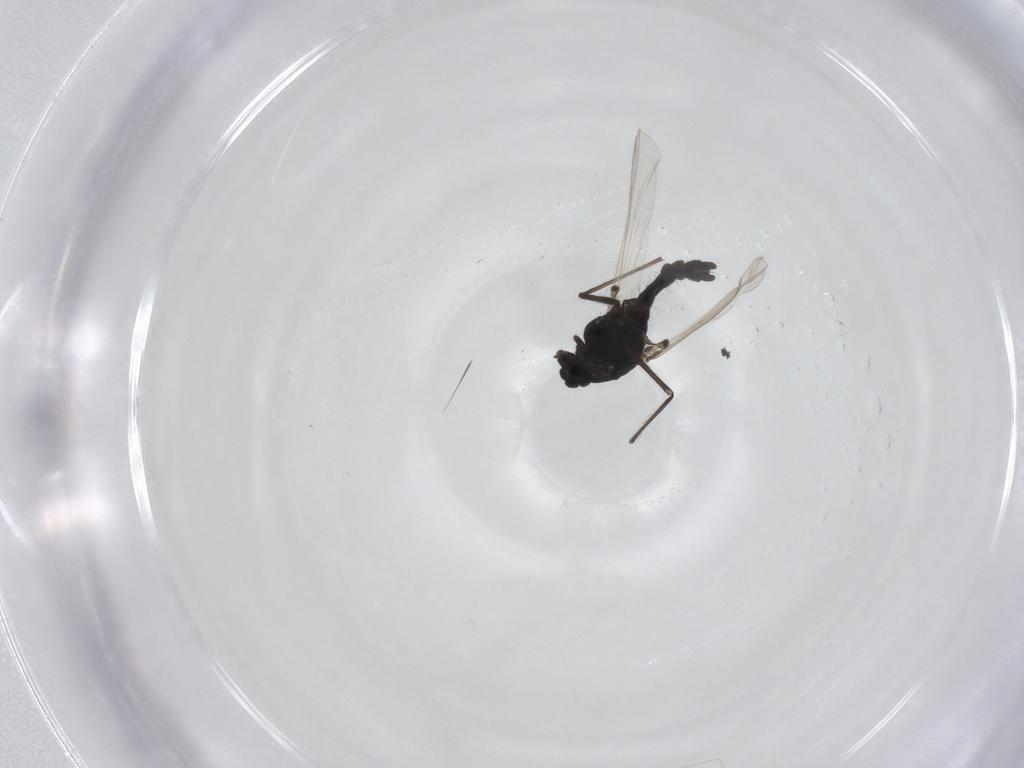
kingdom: Animalia
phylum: Arthropoda
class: Insecta
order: Diptera
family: Chironomidae
